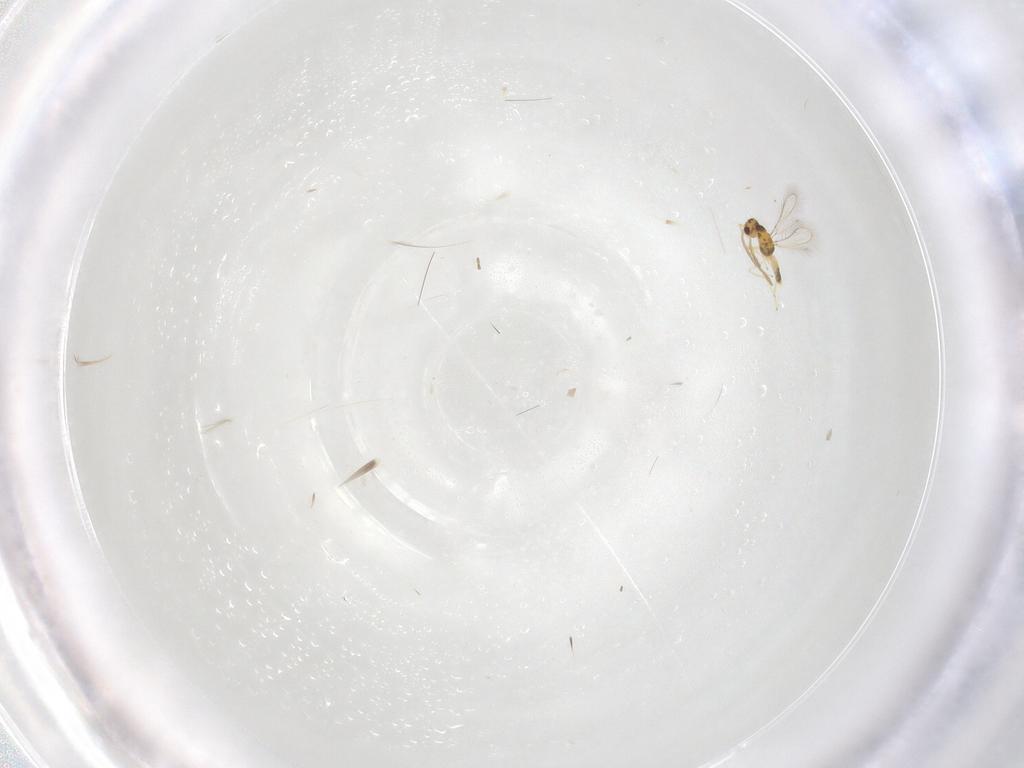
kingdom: Animalia
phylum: Arthropoda
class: Insecta
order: Hymenoptera
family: Mymaridae
